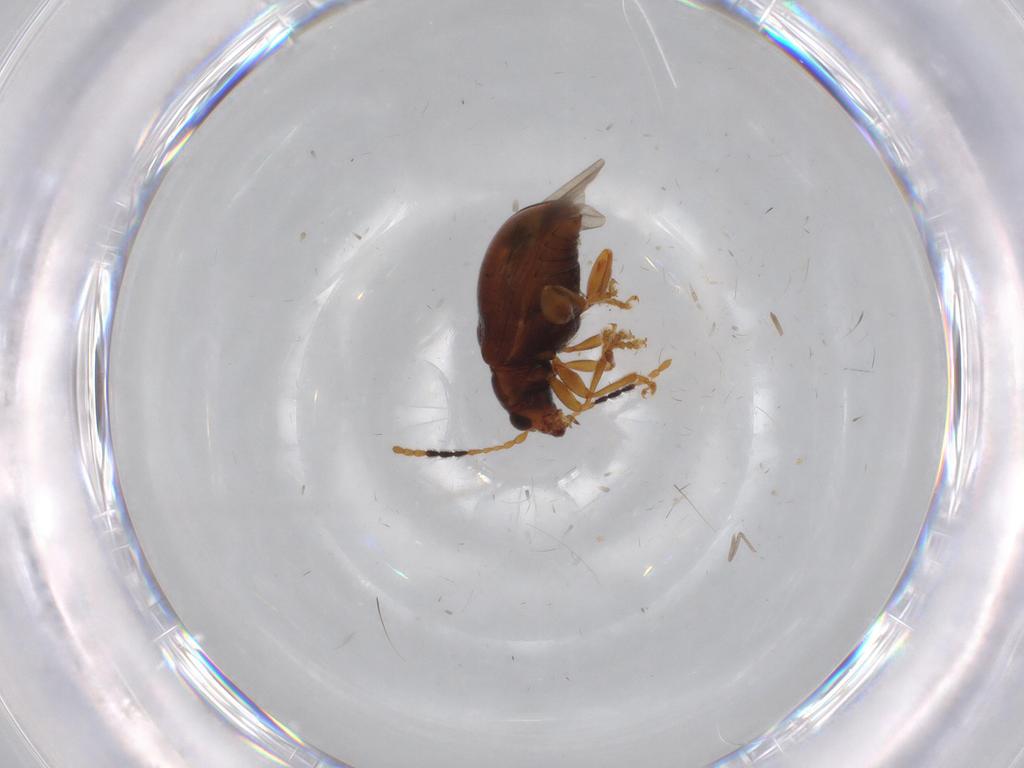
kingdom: Animalia
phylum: Arthropoda
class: Insecta
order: Coleoptera
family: Chrysomelidae
